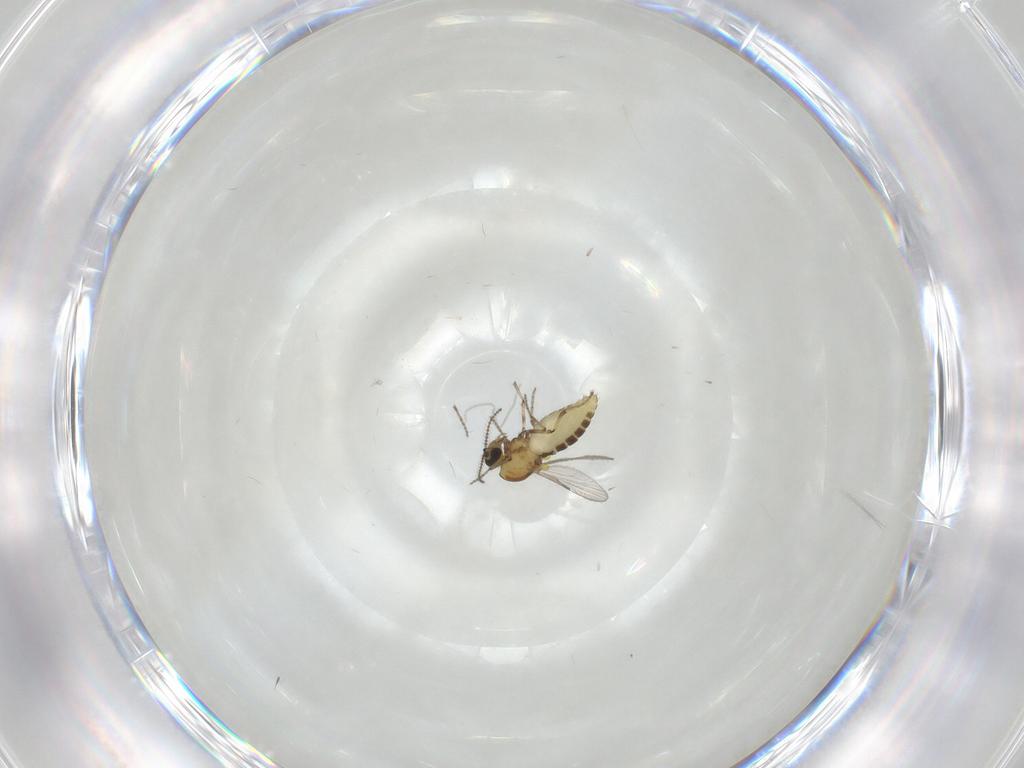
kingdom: Animalia
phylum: Arthropoda
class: Insecta
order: Diptera
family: Ceratopogonidae
